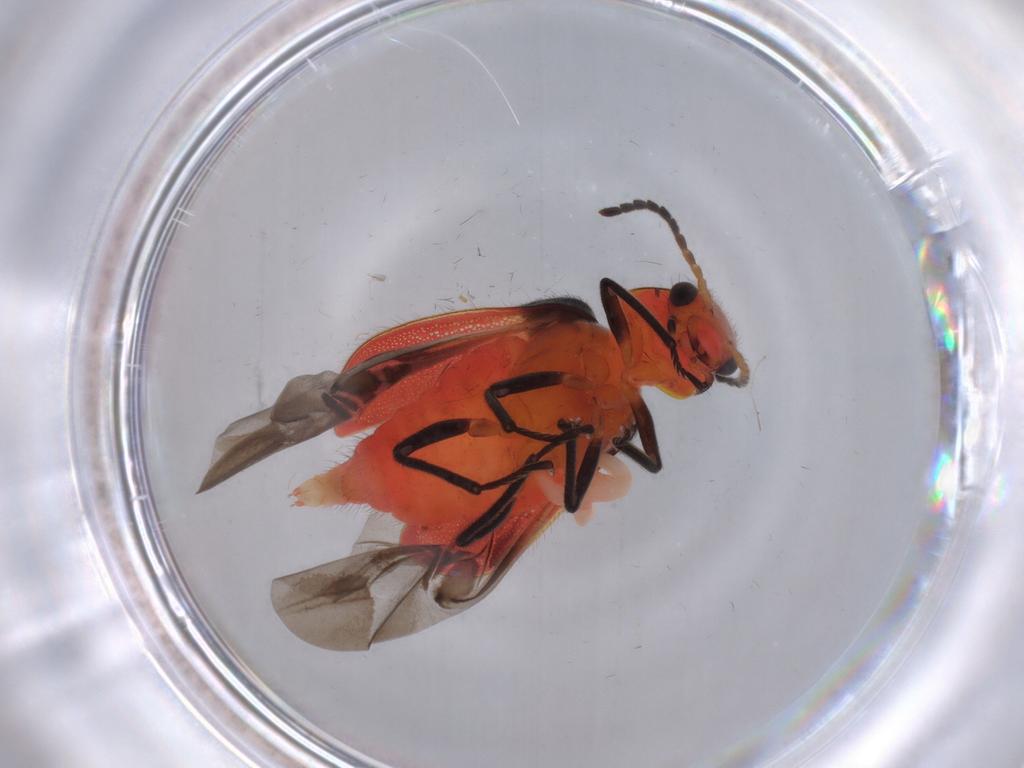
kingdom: Animalia
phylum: Arthropoda
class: Insecta
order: Coleoptera
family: Melyridae
